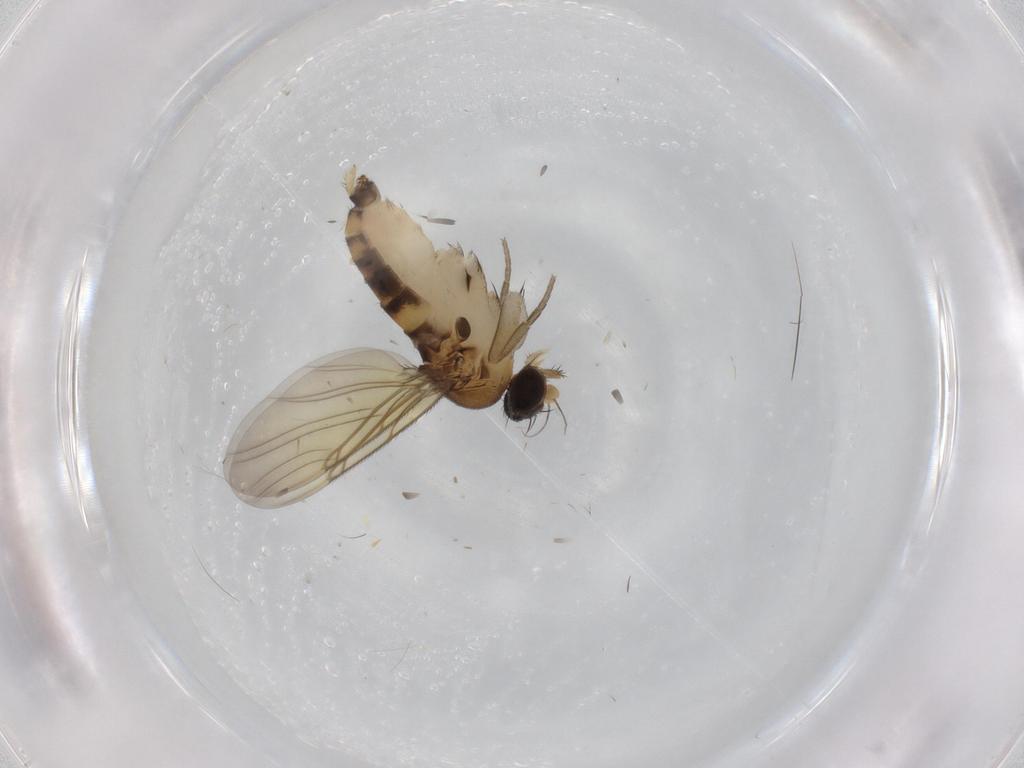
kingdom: Animalia
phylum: Arthropoda
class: Insecta
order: Diptera
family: Phoridae
